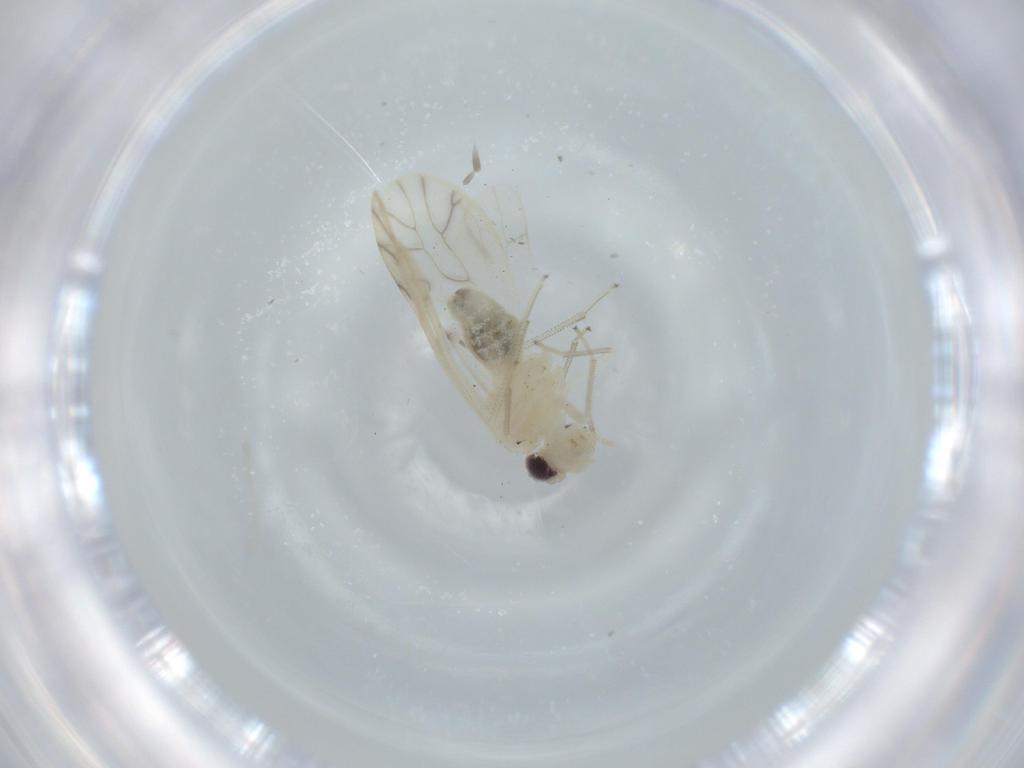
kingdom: Animalia
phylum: Arthropoda
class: Insecta
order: Psocodea
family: Caeciliusidae
